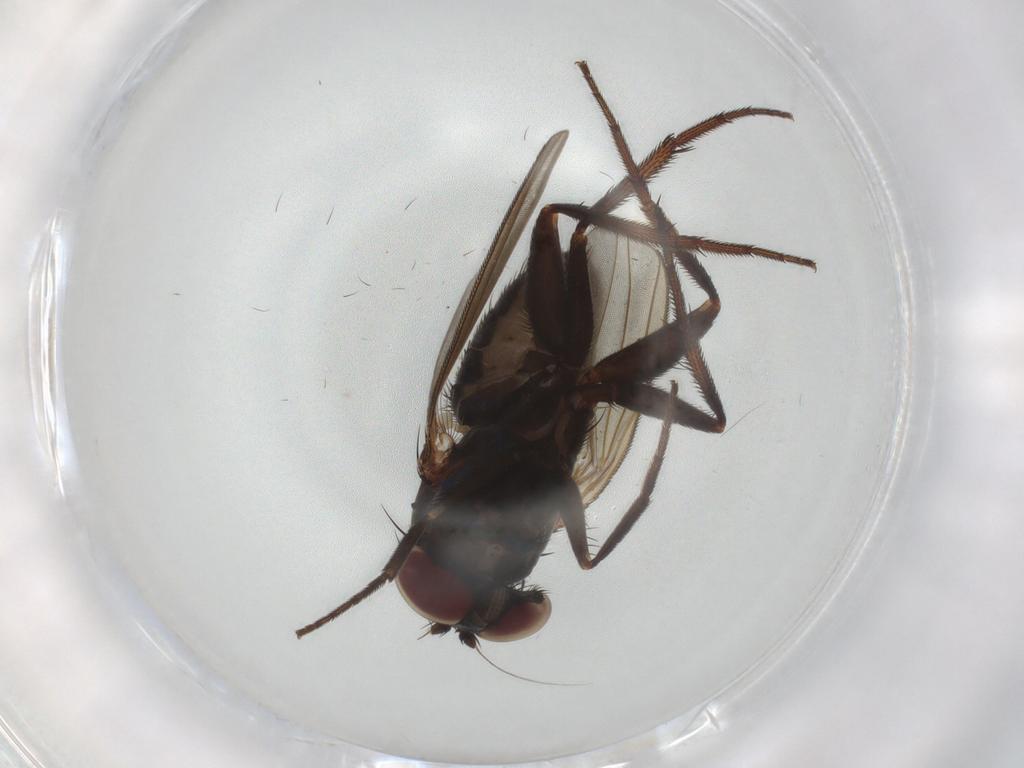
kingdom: Animalia
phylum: Arthropoda
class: Insecta
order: Diptera
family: Dolichopodidae
